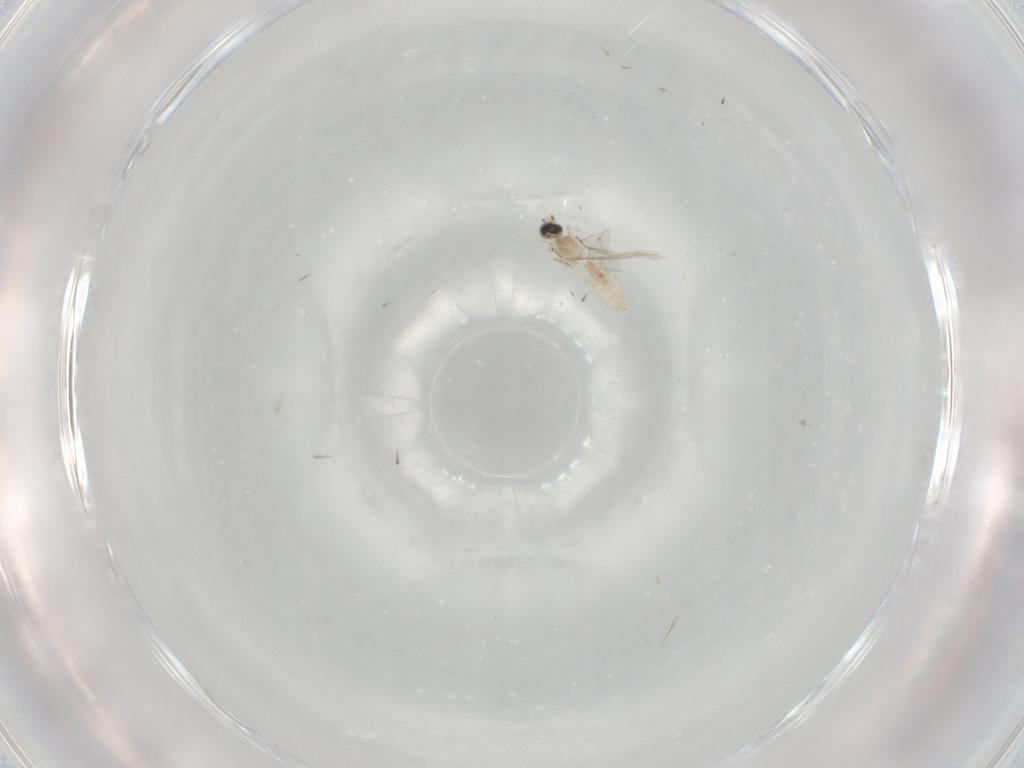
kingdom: Animalia
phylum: Arthropoda
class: Insecta
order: Diptera
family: Cecidomyiidae
